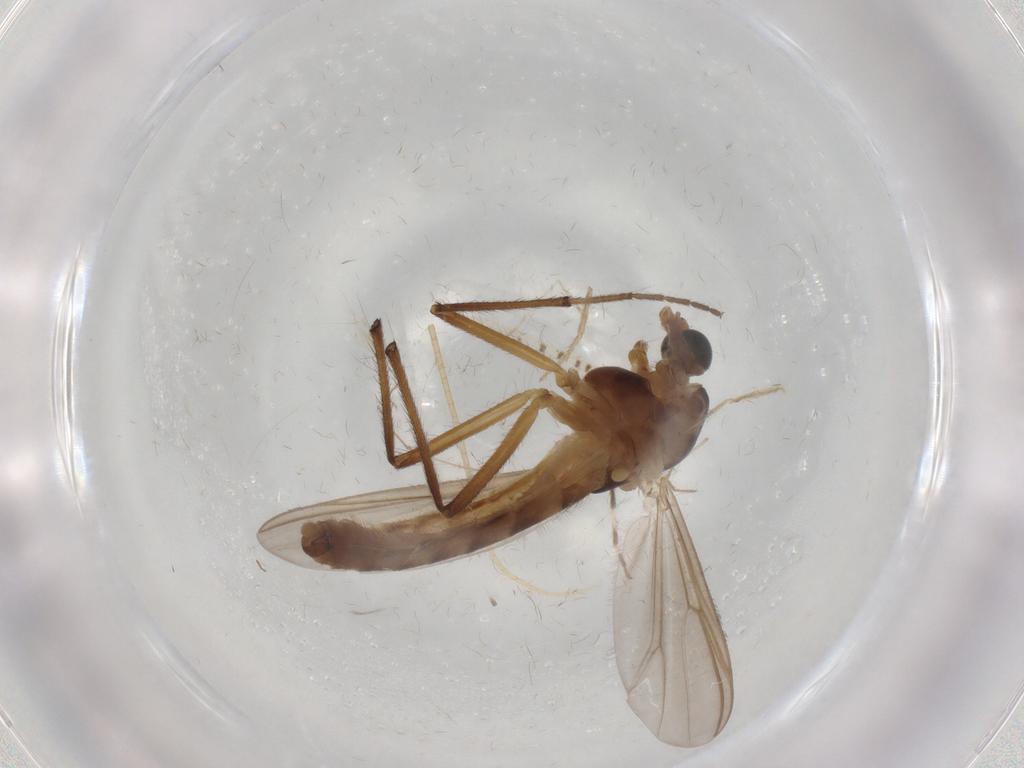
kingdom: Animalia
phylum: Arthropoda
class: Insecta
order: Diptera
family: Chironomidae
